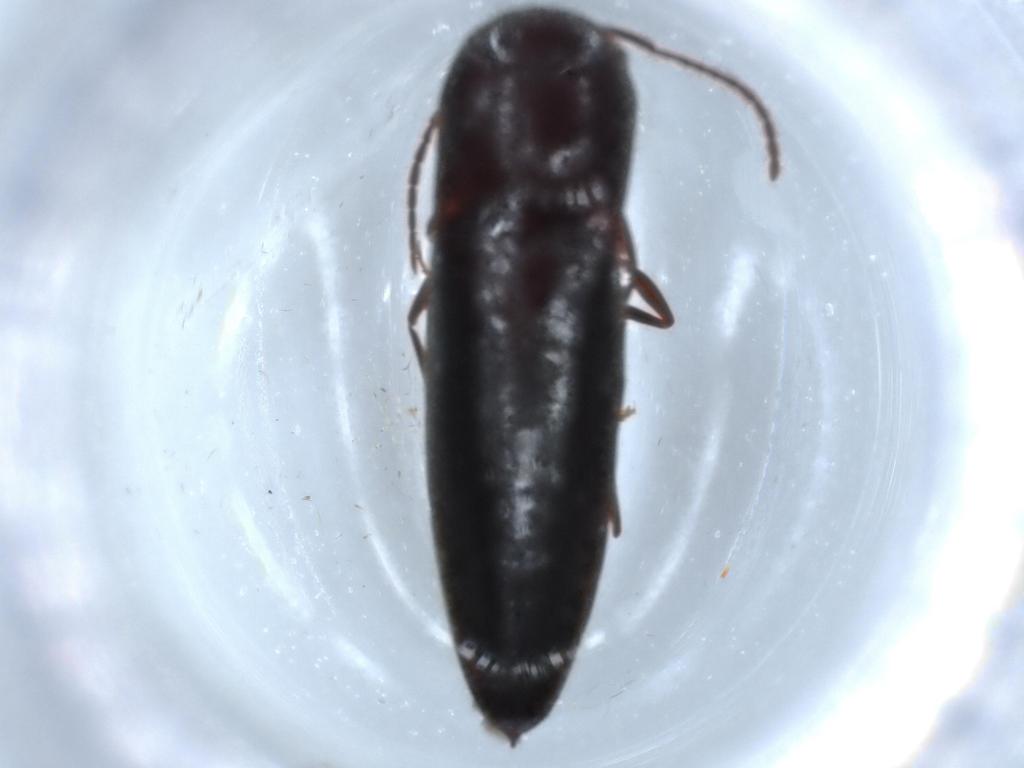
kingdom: Animalia
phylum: Arthropoda
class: Insecta
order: Coleoptera
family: Eucnemidae
